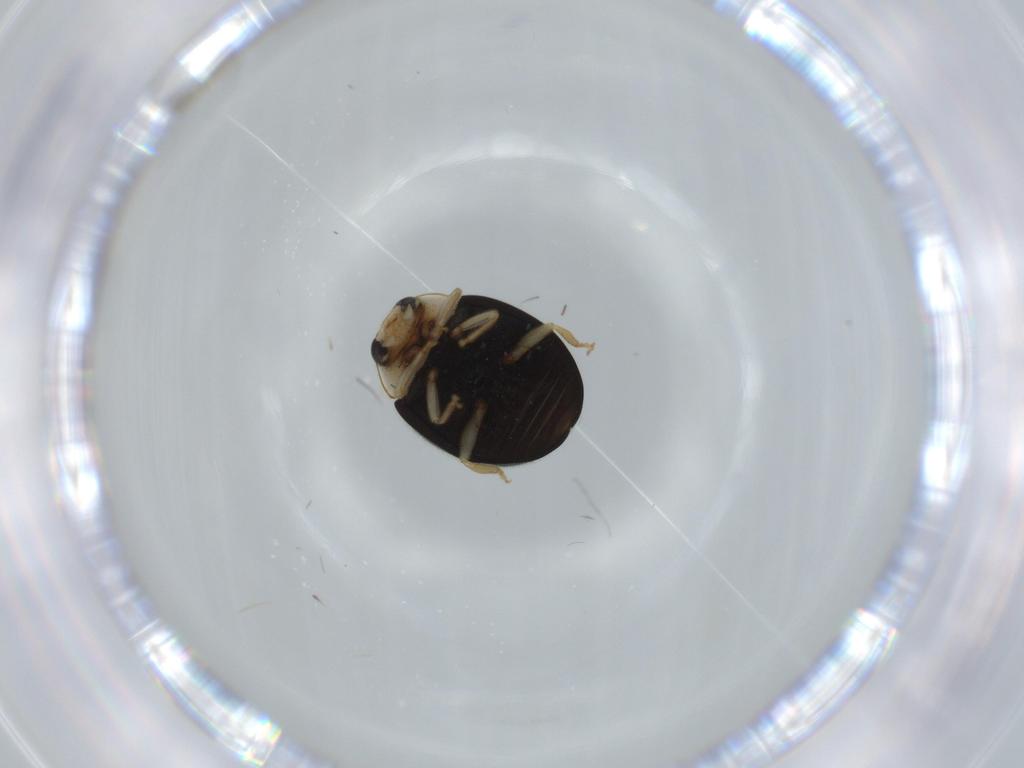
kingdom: Animalia
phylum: Arthropoda
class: Insecta
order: Coleoptera
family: Coccinellidae
